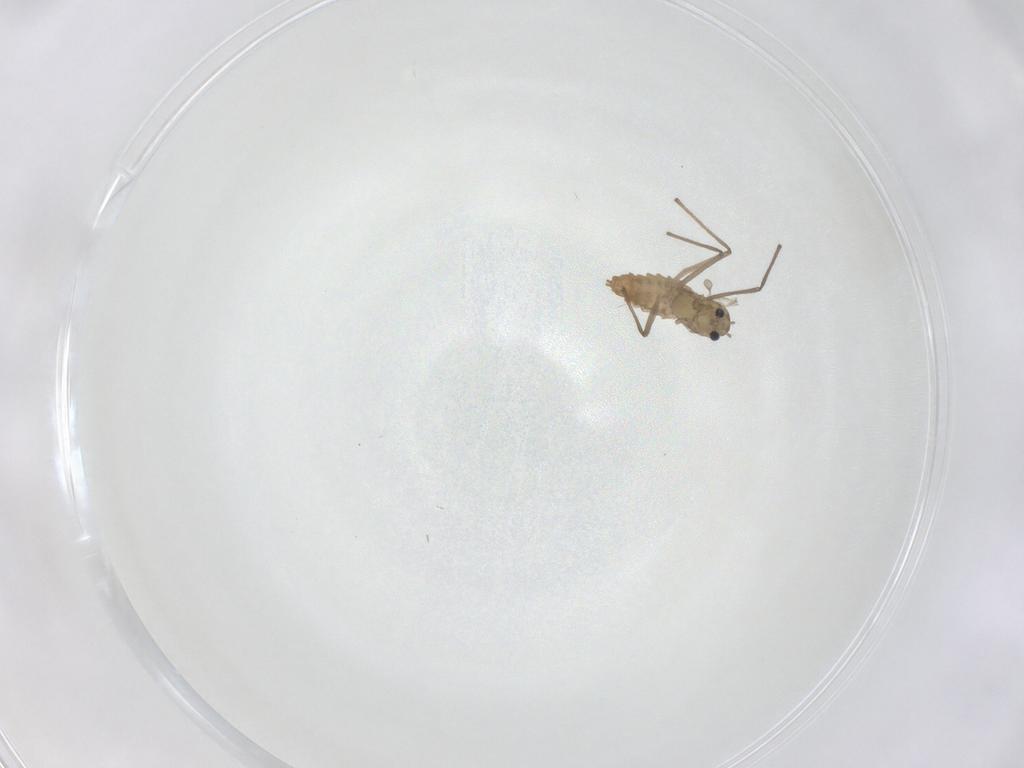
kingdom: Animalia
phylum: Arthropoda
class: Insecta
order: Diptera
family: Chironomidae
